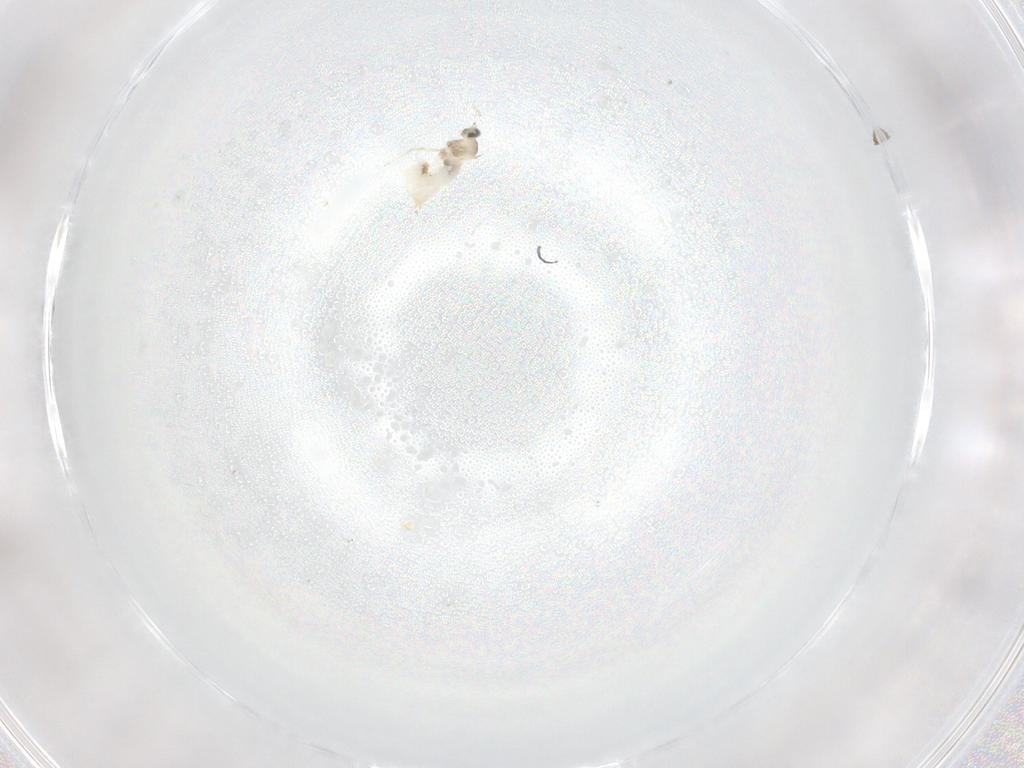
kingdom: Animalia
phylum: Arthropoda
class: Insecta
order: Diptera
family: Cecidomyiidae
